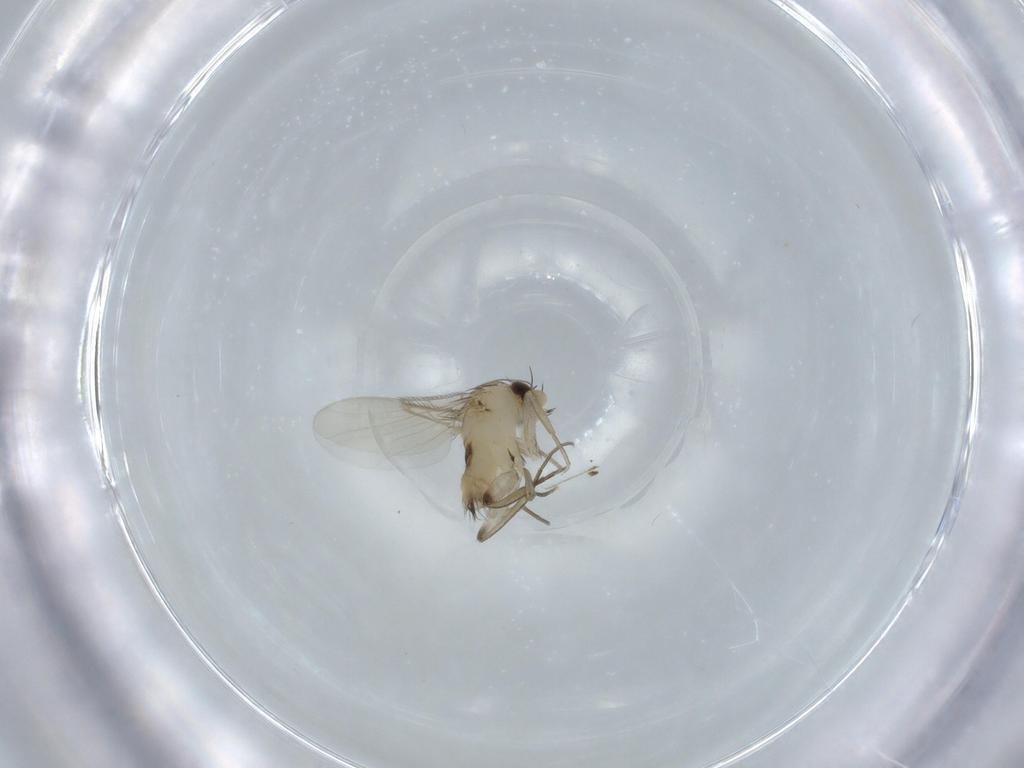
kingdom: Animalia
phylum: Arthropoda
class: Insecta
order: Diptera
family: Phoridae
